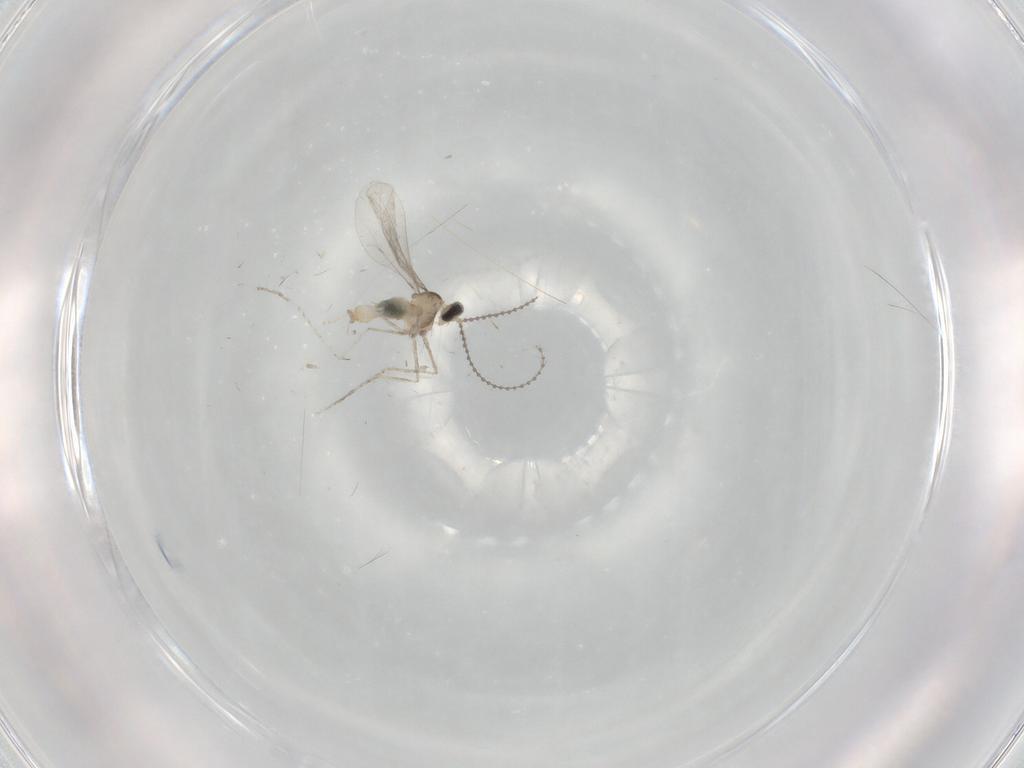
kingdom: Animalia
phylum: Arthropoda
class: Insecta
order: Diptera
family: Cecidomyiidae
